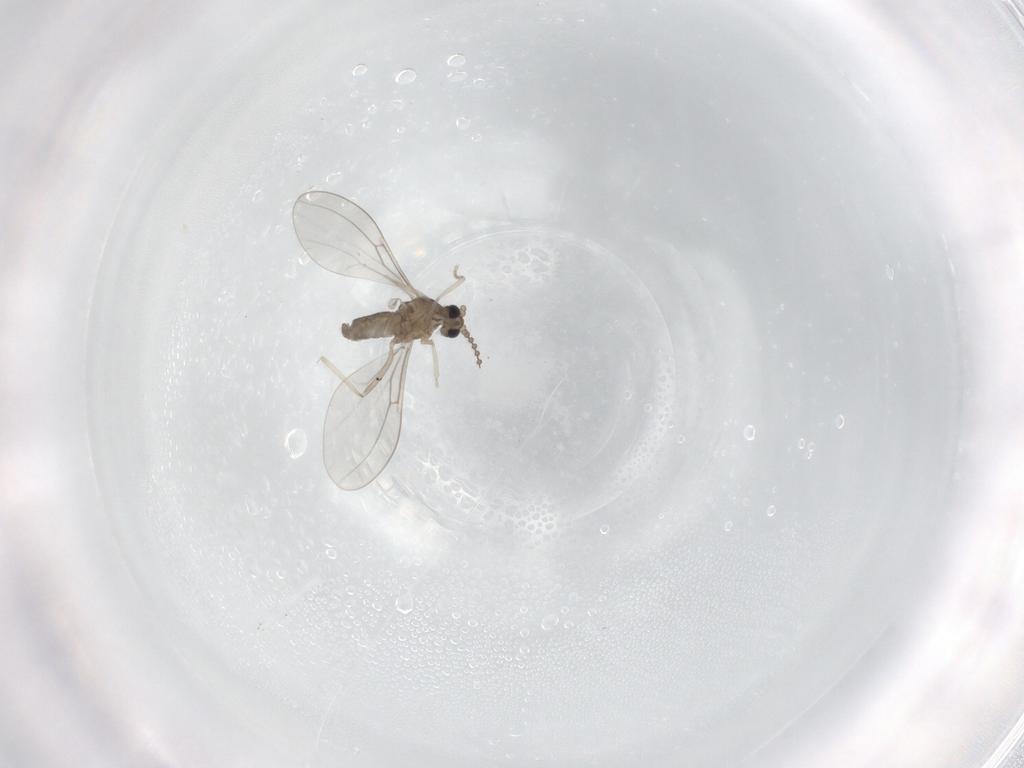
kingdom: Animalia
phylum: Arthropoda
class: Insecta
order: Diptera
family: Cecidomyiidae
